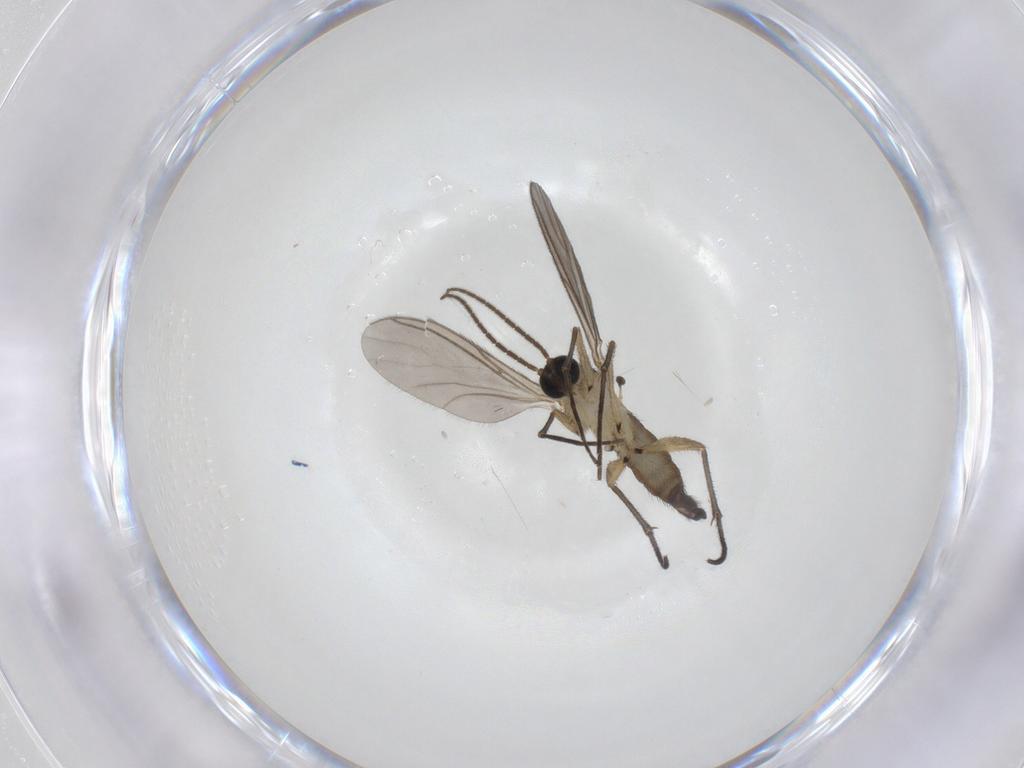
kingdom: Animalia
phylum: Arthropoda
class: Insecta
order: Diptera
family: Sciaridae
